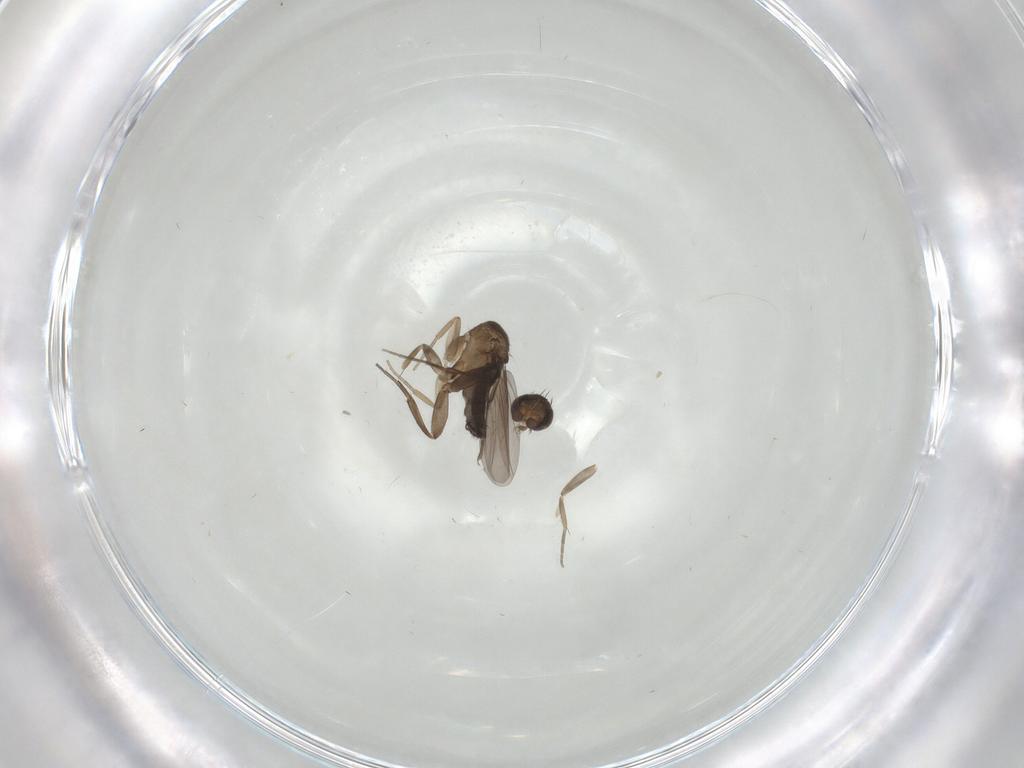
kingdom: Animalia
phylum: Arthropoda
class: Insecta
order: Diptera
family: Phoridae
